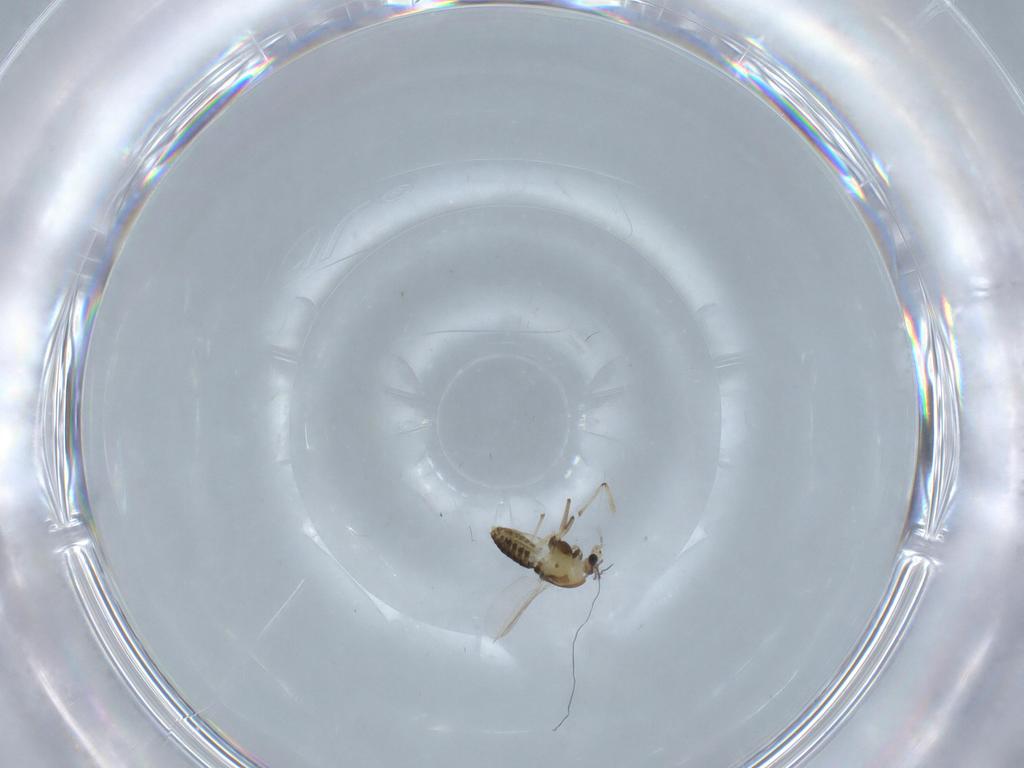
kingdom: Animalia
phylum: Arthropoda
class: Insecta
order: Diptera
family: Chironomidae
